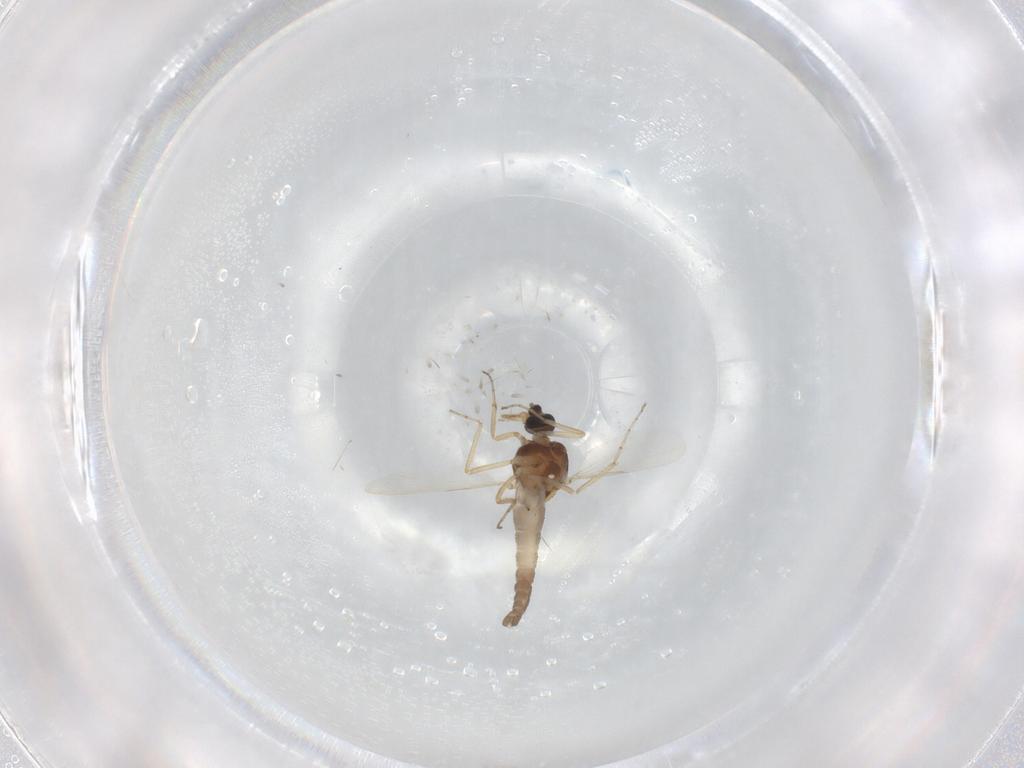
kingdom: Animalia
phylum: Arthropoda
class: Insecta
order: Diptera
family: Ceratopogonidae
